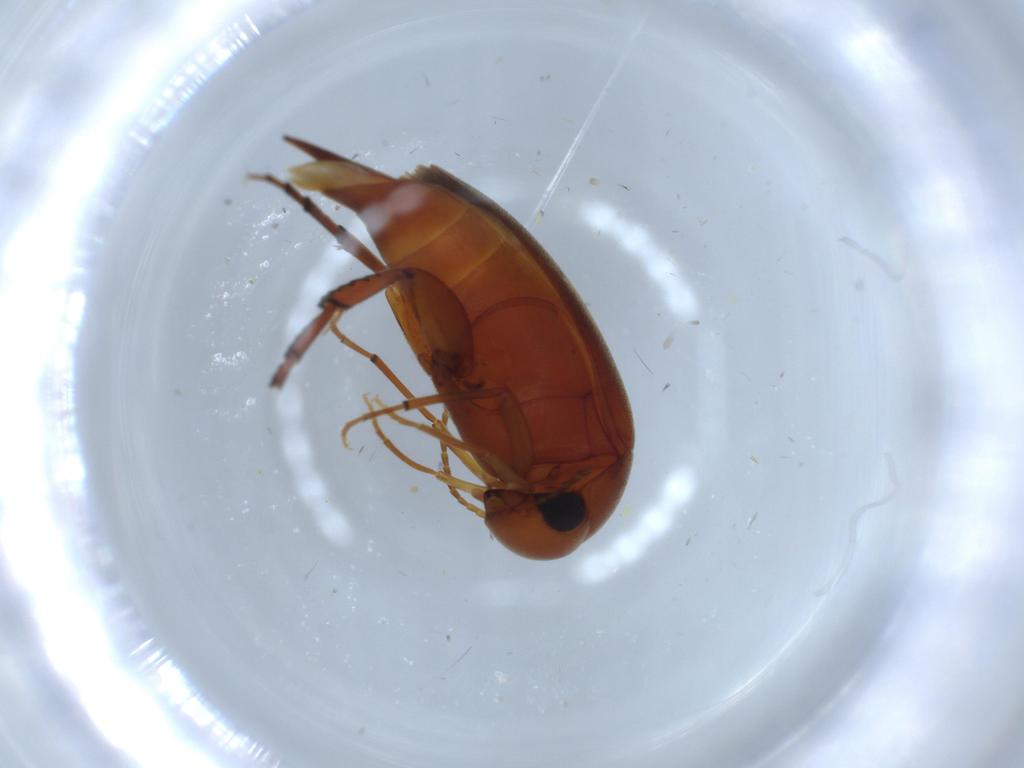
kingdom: Animalia
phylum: Arthropoda
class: Insecta
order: Coleoptera
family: Mordellidae
